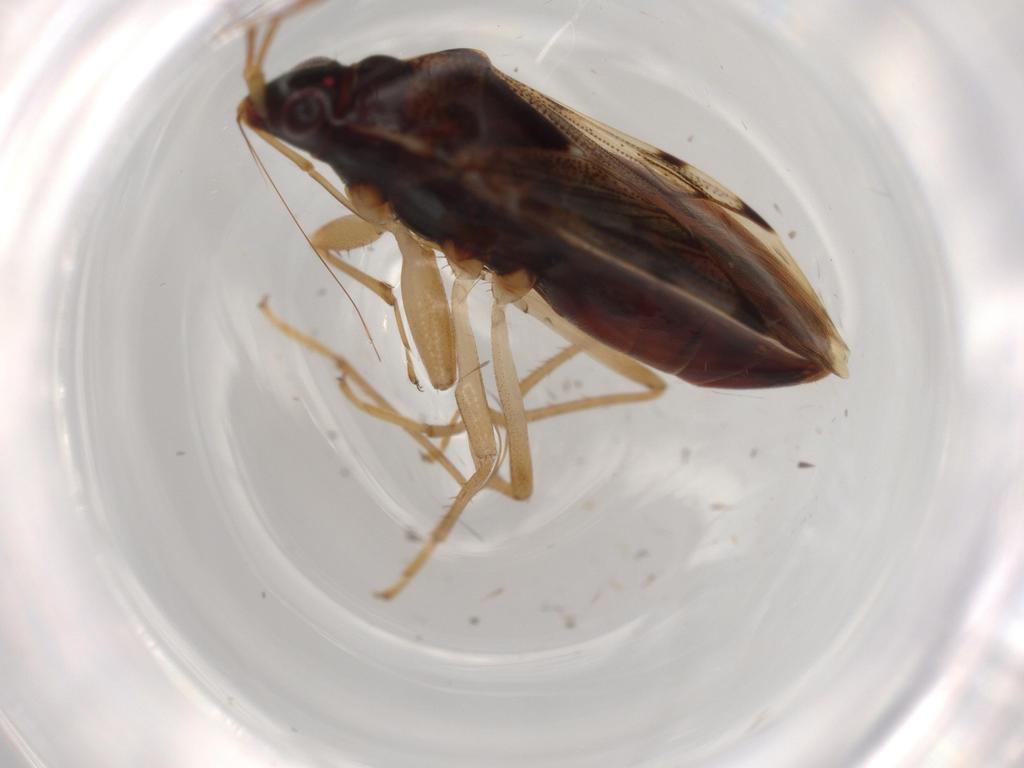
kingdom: Animalia
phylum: Arthropoda
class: Insecta
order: Hemiptera
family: Rhyparochromidae
